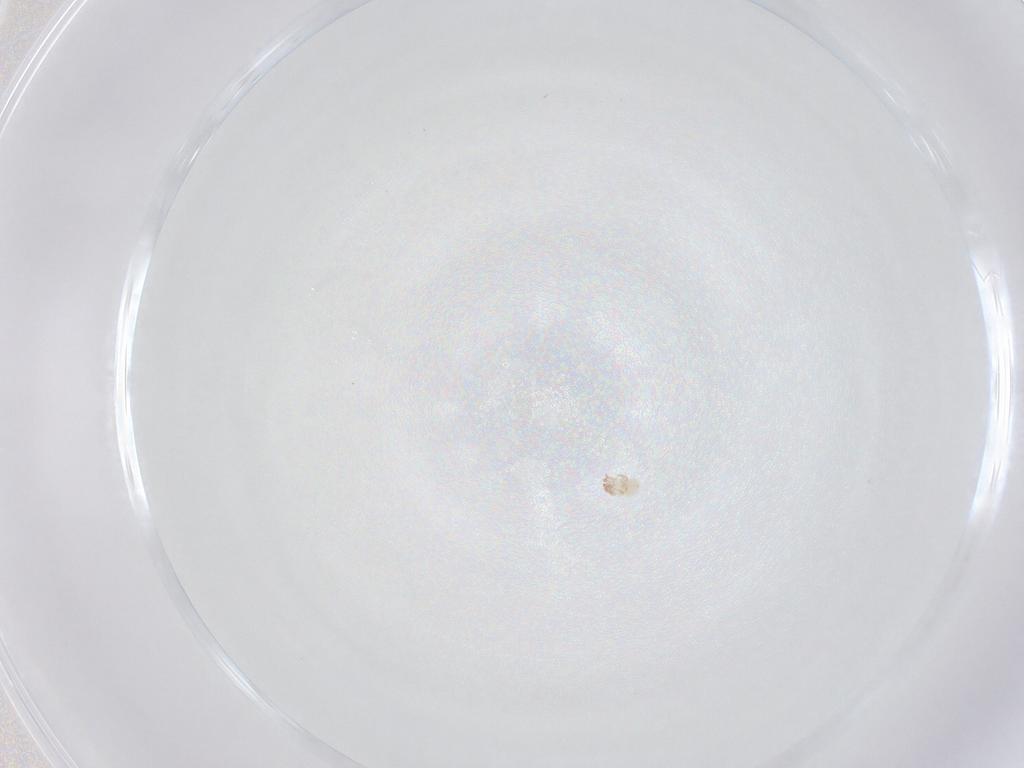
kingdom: Animalia
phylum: Arthropoda
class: Insecta
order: Diptera
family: Cecidomyiidae
